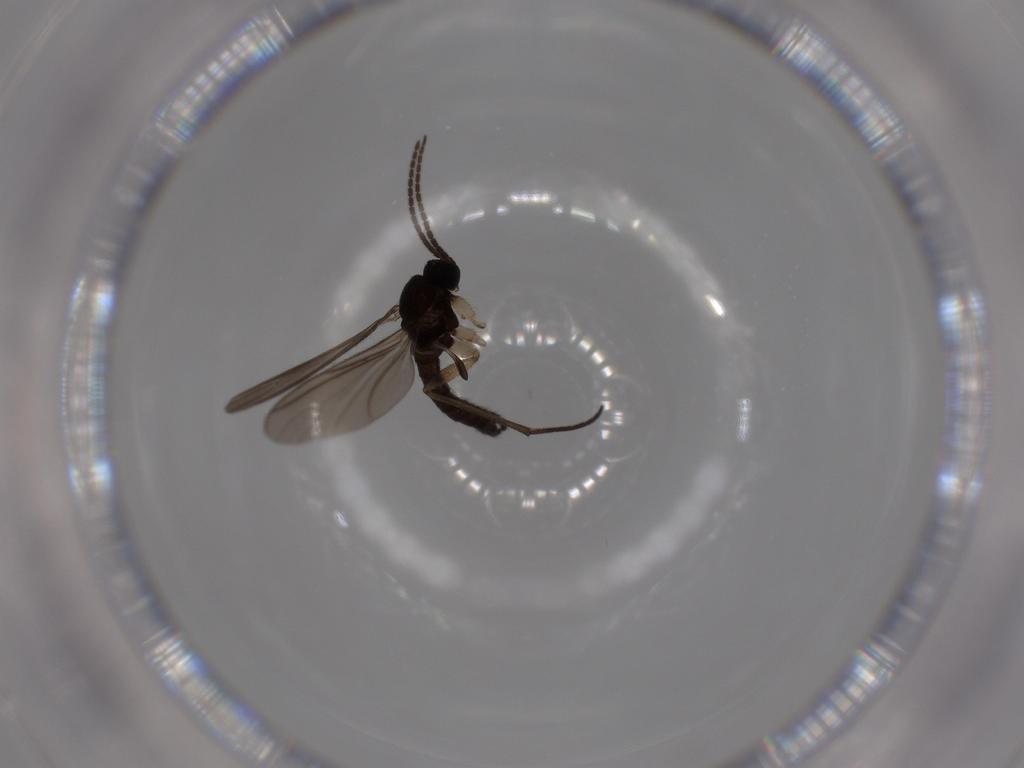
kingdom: Animalia
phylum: Arthropoda
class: Insecta
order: Diptera
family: Sciaridae
